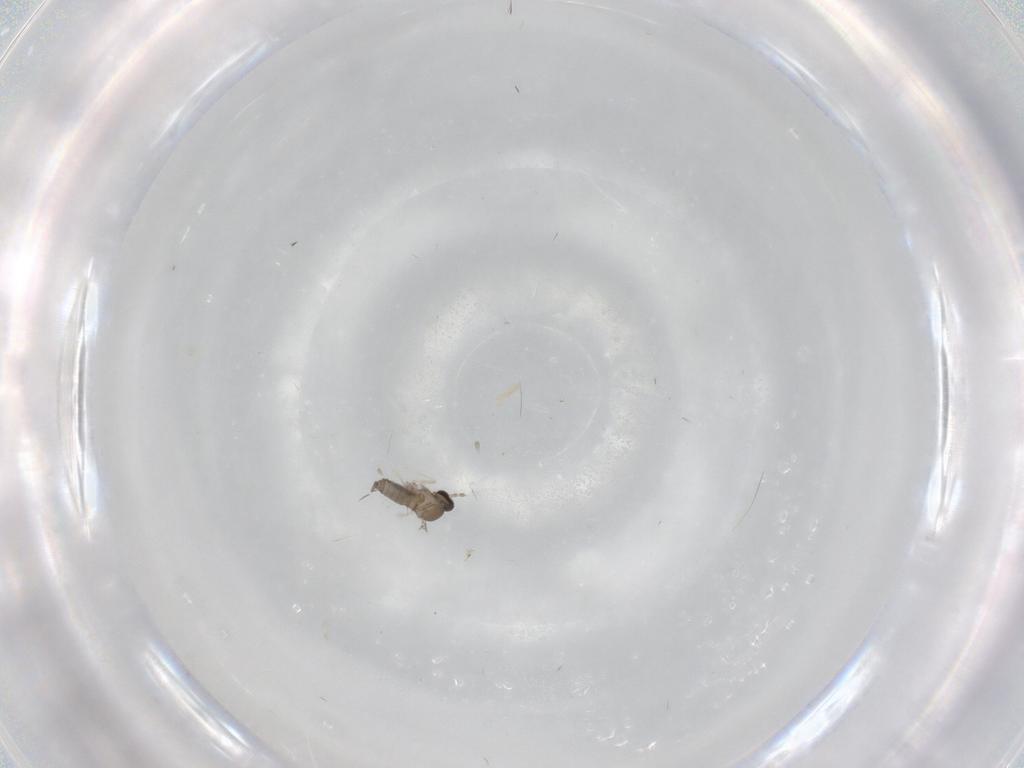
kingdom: Animalia
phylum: Arthropoda
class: Insecta
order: Diptera
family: Cecidomyiidae
